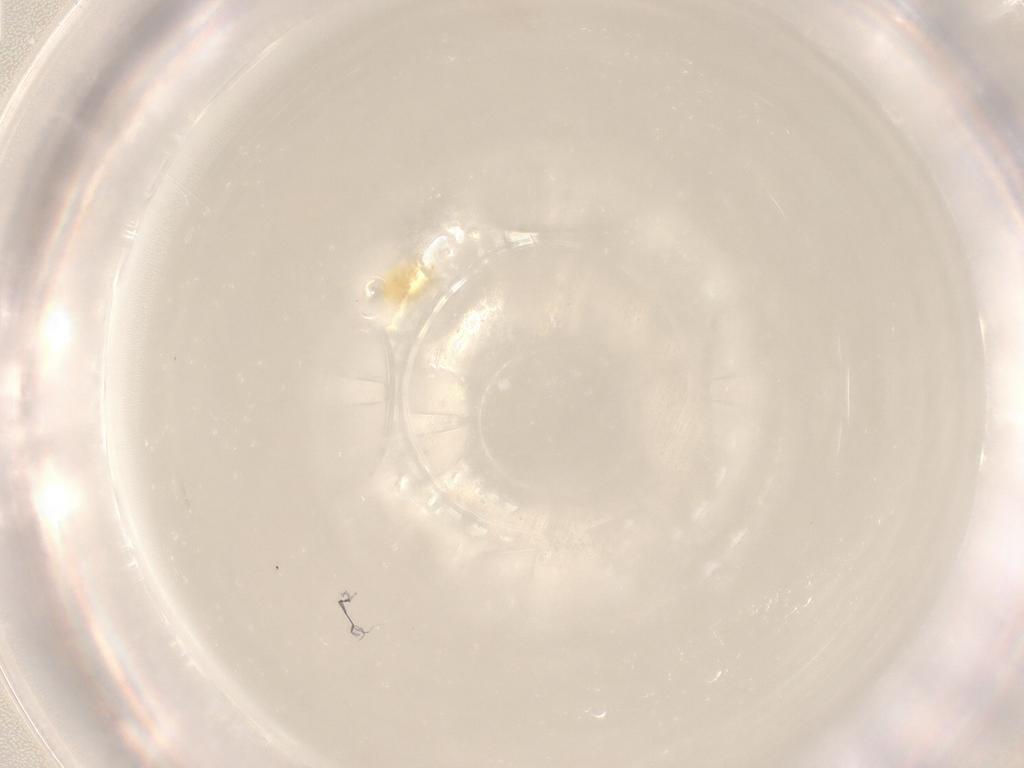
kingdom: Animalia
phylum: Arthropoda
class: Arachnida
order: Trombidiformes
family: Tetranychidae
